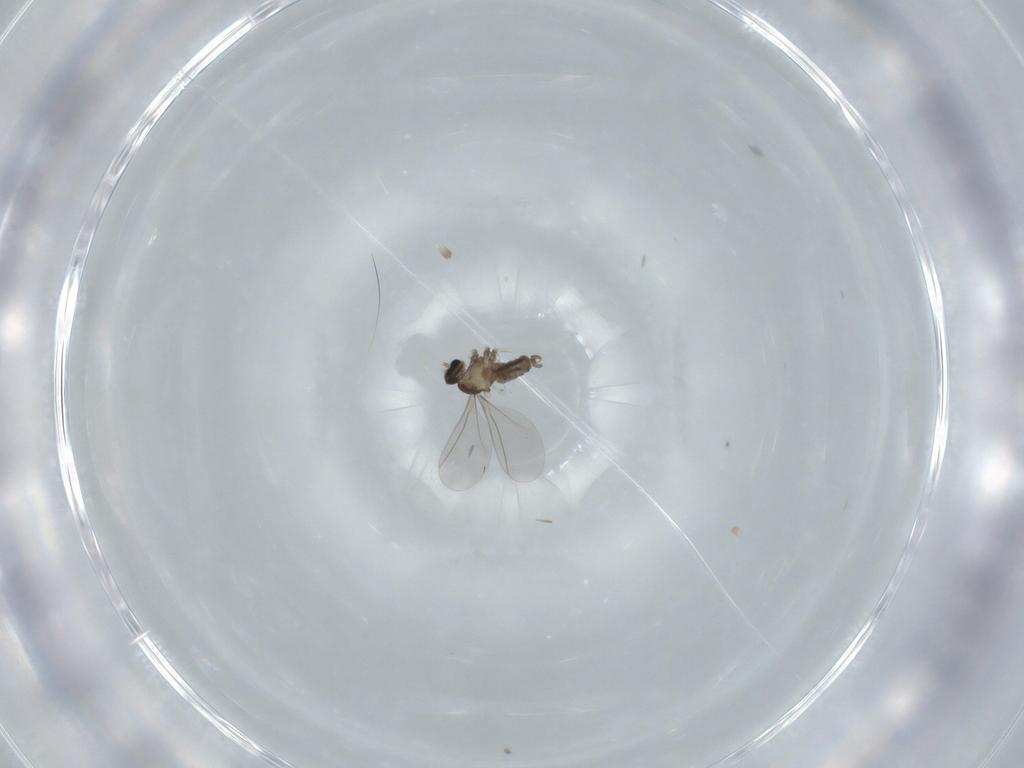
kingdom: Animalia
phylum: Arthropoda
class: Insecta
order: Diptera
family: Cecidomyiidae
